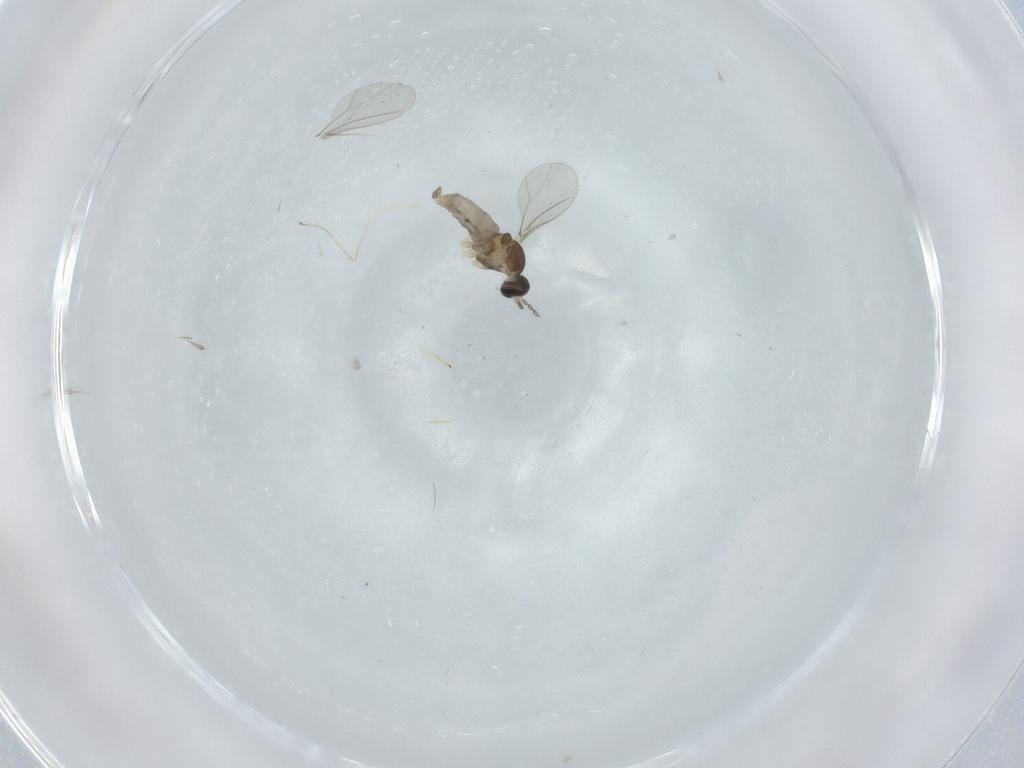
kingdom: Animalia
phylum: Arthropoda
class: Insecta
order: Diptera
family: Cecidomyiidae
